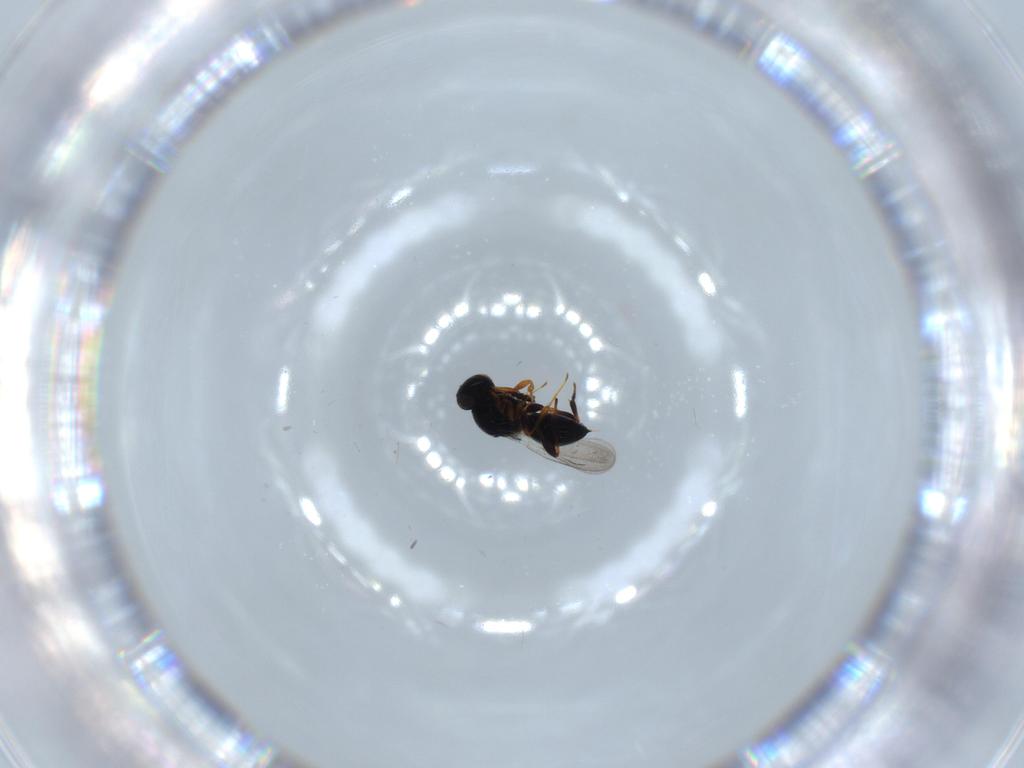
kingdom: Animalia
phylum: Arthropoda
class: Insecta
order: Hymenoptera
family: Platygastridae
